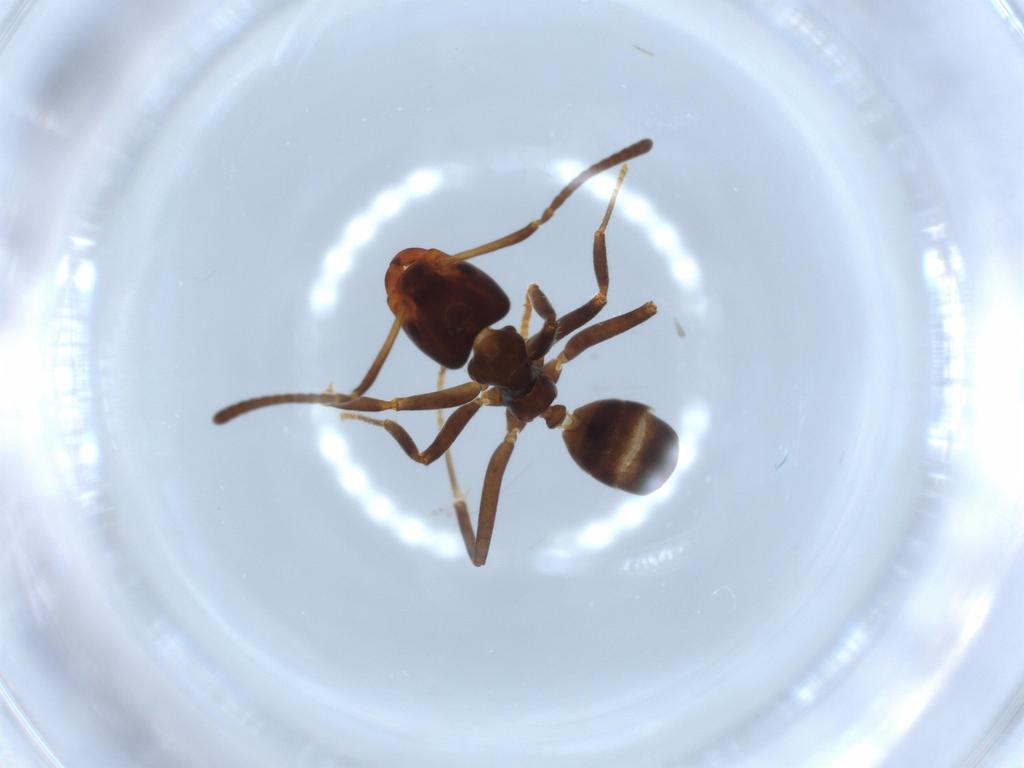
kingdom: Animalia
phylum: Arthropoda
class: Insecta
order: Hymenoptera
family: Formicidae
